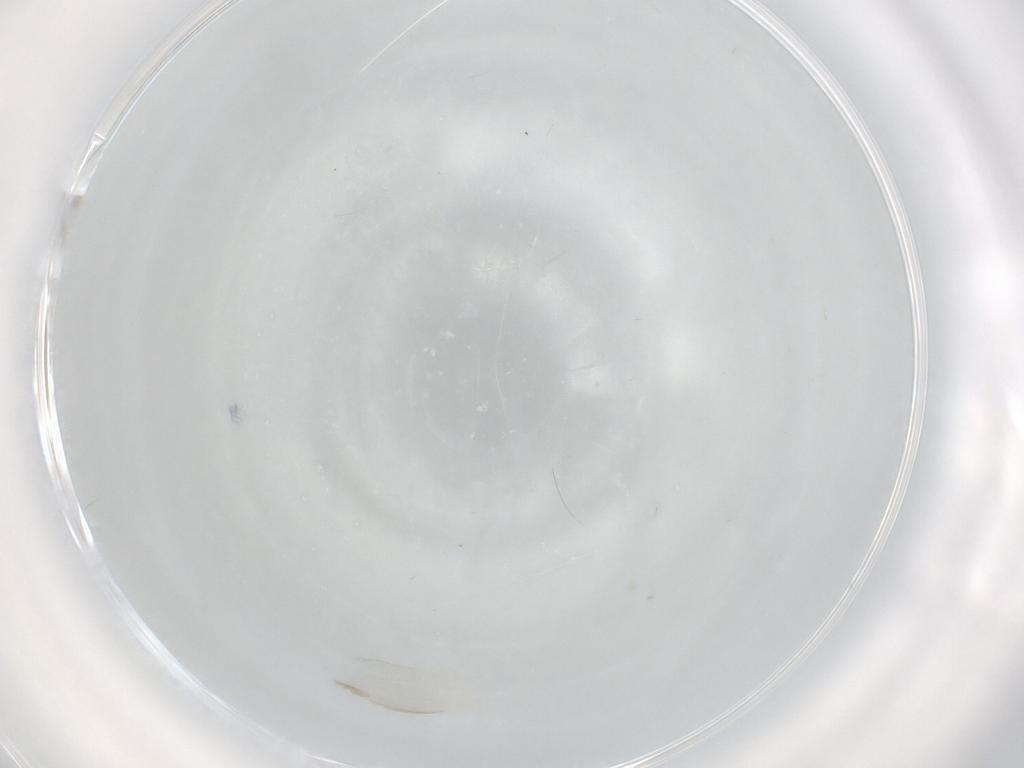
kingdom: Animalia
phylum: Arthropoda
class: Insecta
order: Diptera
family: Chironomidae
